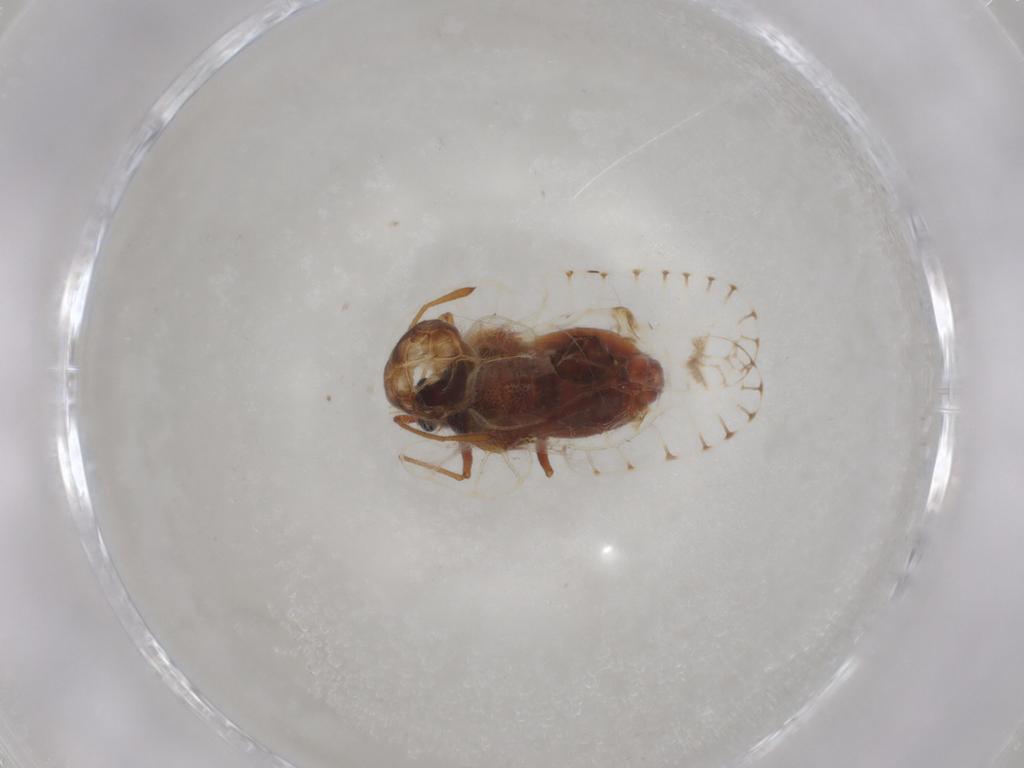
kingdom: Animalia
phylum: Arthropoda
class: Insecta
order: Hemiptera
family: Tingidae
